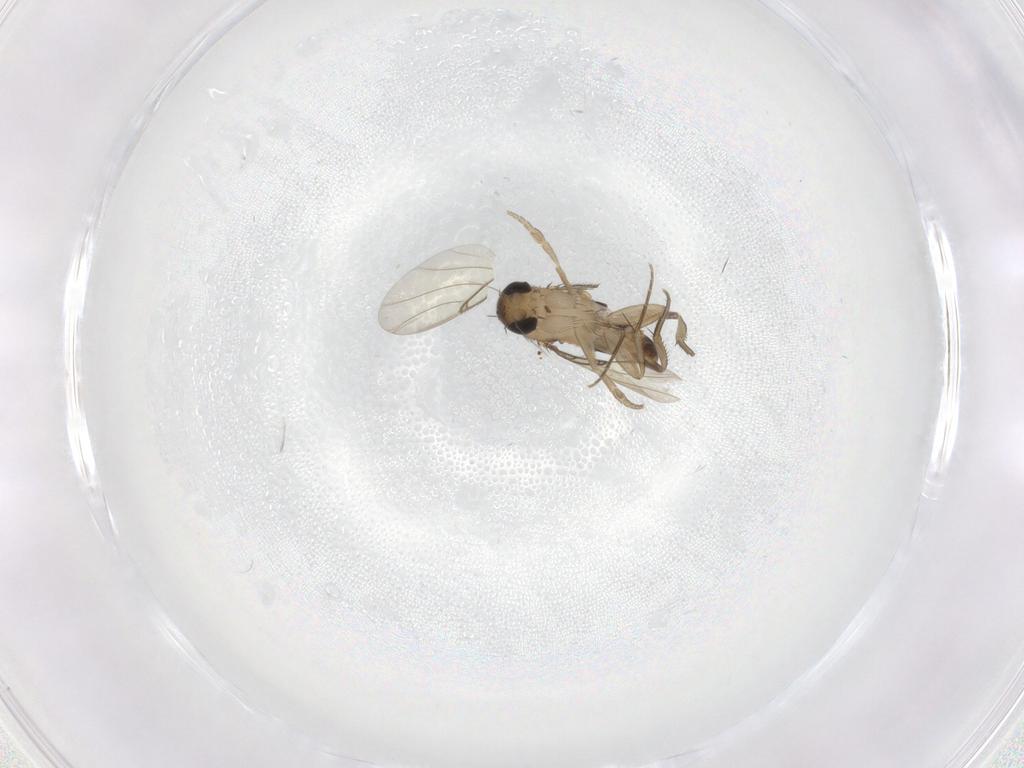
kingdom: Animalia
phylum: Arthropoda
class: Insecta
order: Diptera
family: Sciaridae
